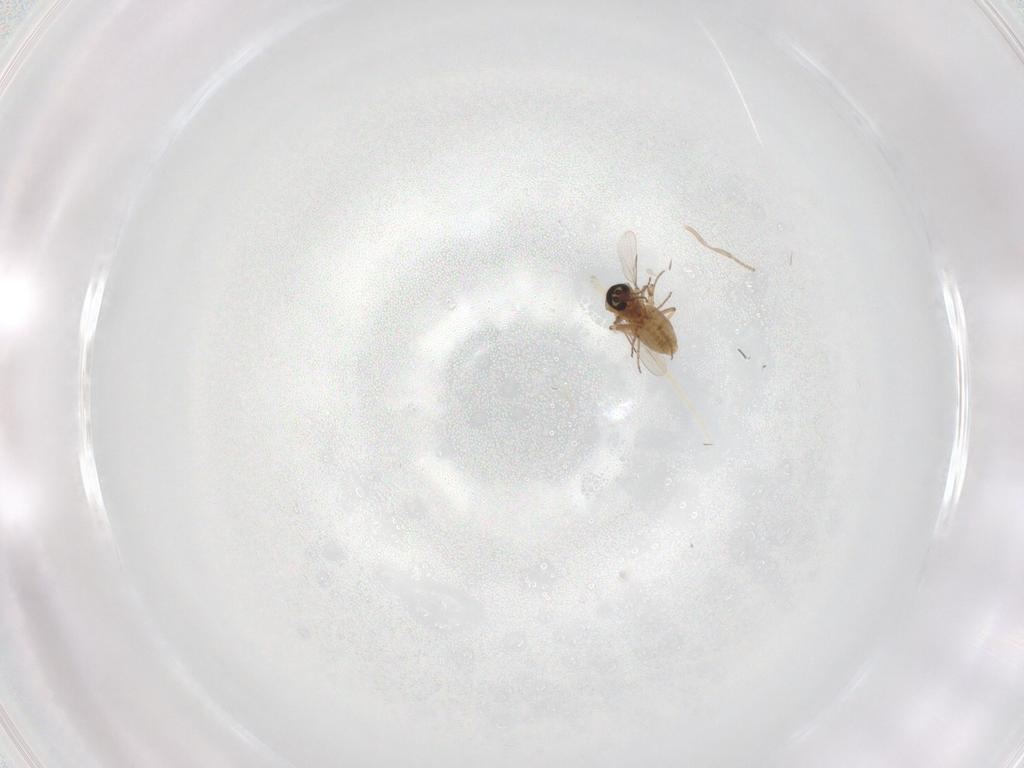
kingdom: Animalia
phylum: Arthropoda
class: Insecta
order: Diptera
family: Ceratopogonidae
